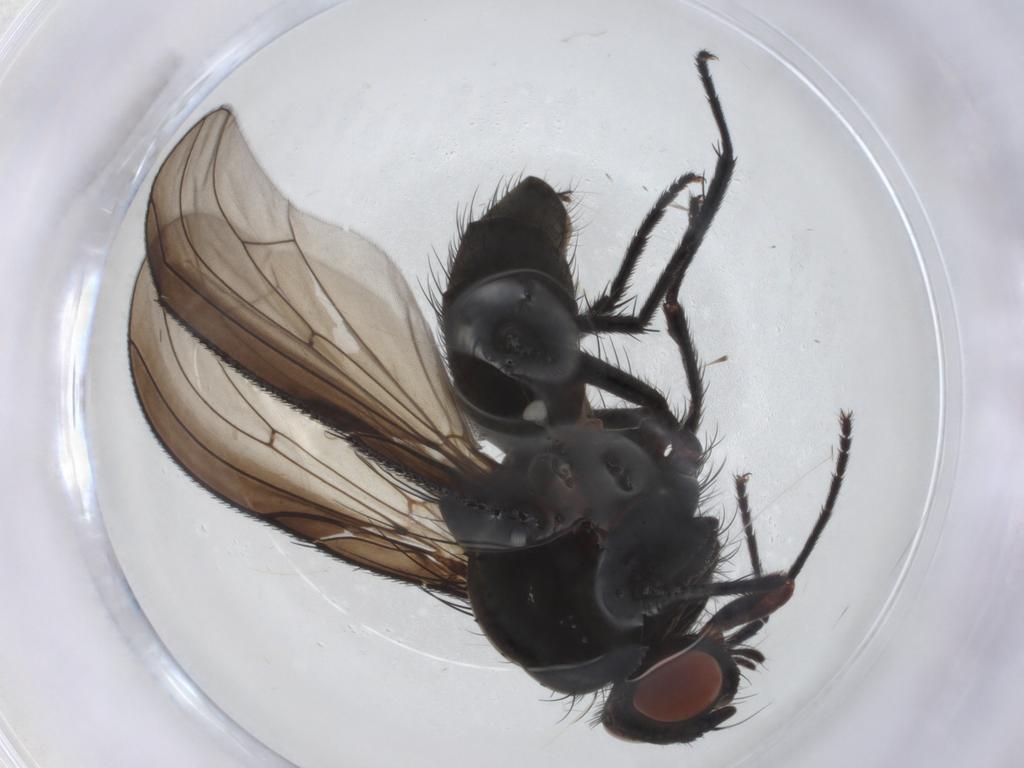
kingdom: Animalia
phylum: Arthropoda
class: Insecta
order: Diptera
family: Anthomyiidae
